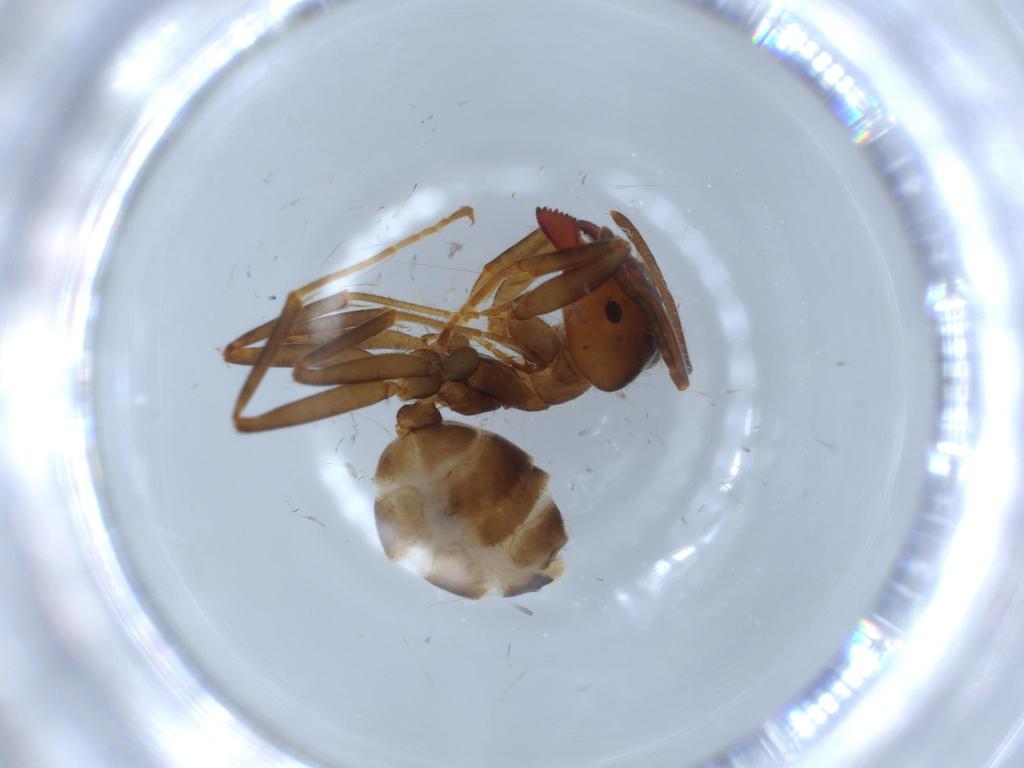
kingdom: Animalia
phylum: Arthropoda
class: Insecta
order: Hymenoptera
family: Formicidae
